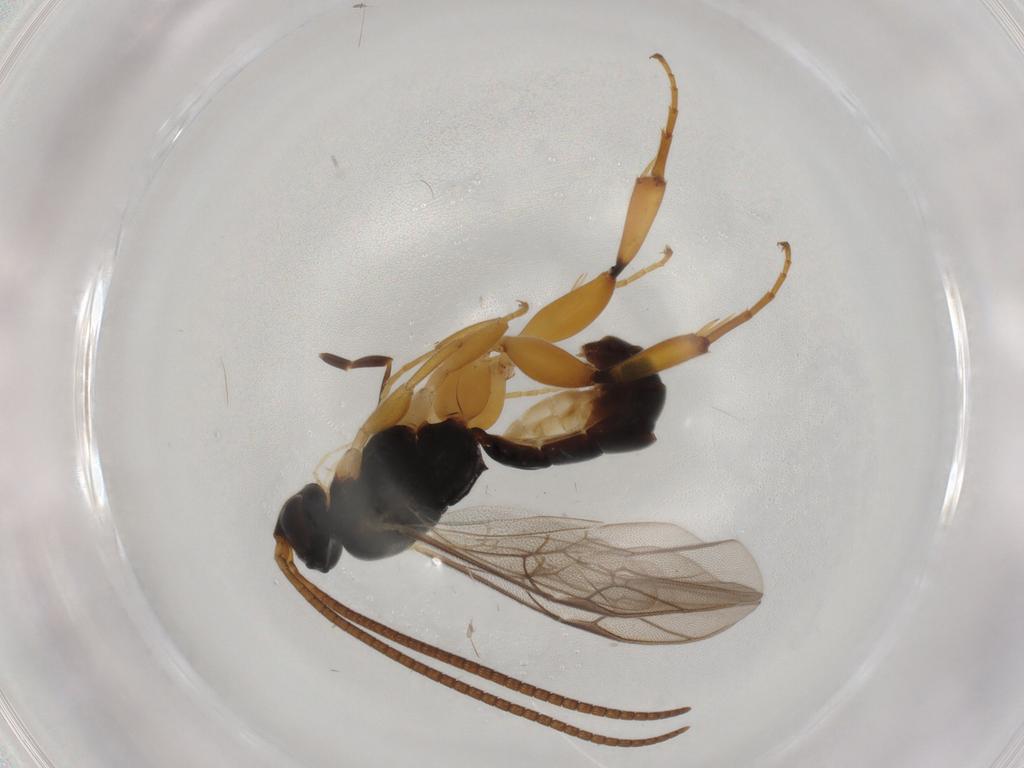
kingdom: Animalia
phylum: Arthropoda
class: Insecta
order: Hymenoptera
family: Ichneumonidae
